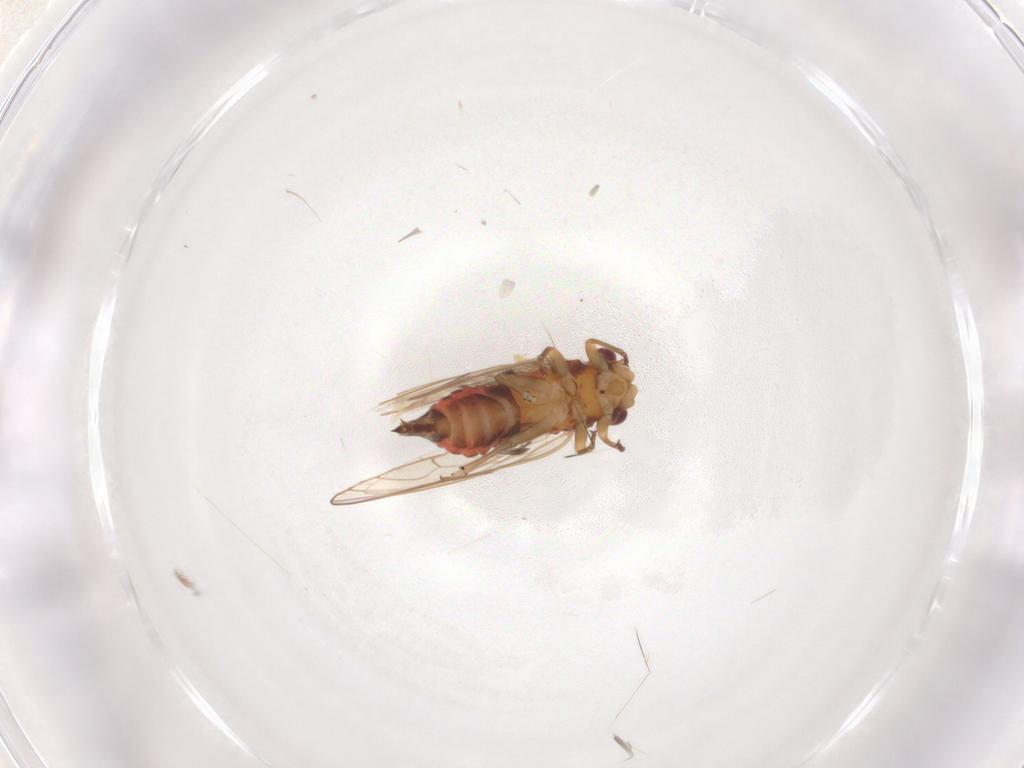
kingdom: Animalia
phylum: Arthropoda
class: Insecta
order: Hemiptera
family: Psyllidae
